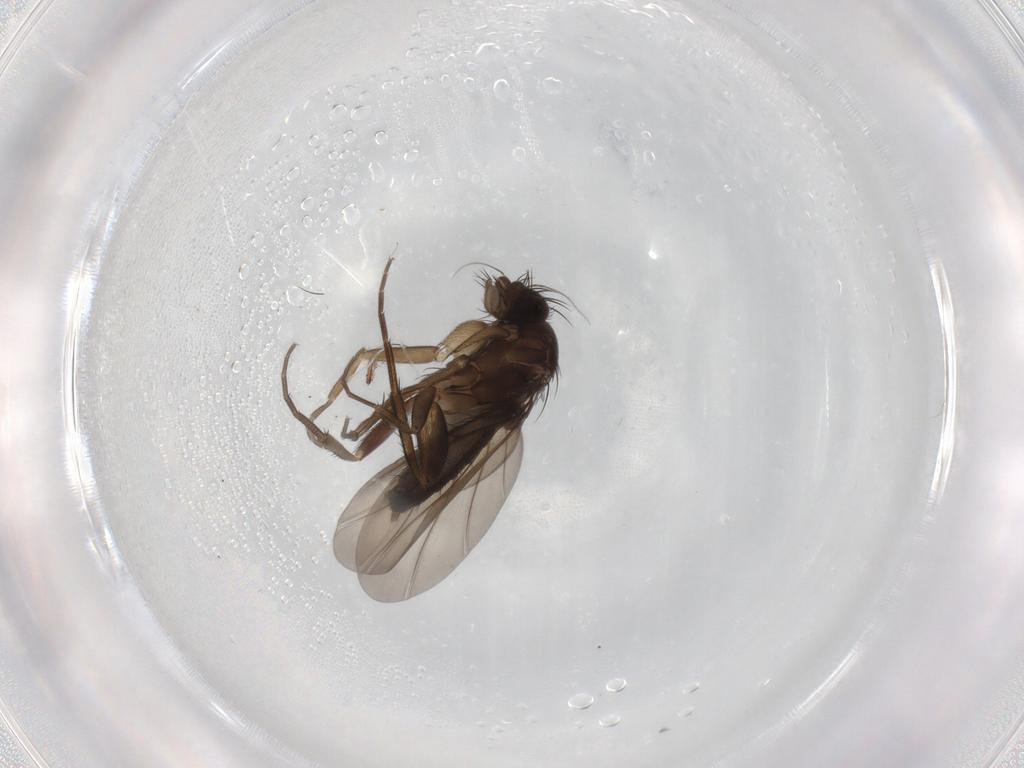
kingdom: Animalia
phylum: Arthropoda
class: Insecta
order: Diptera
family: Phoridae
